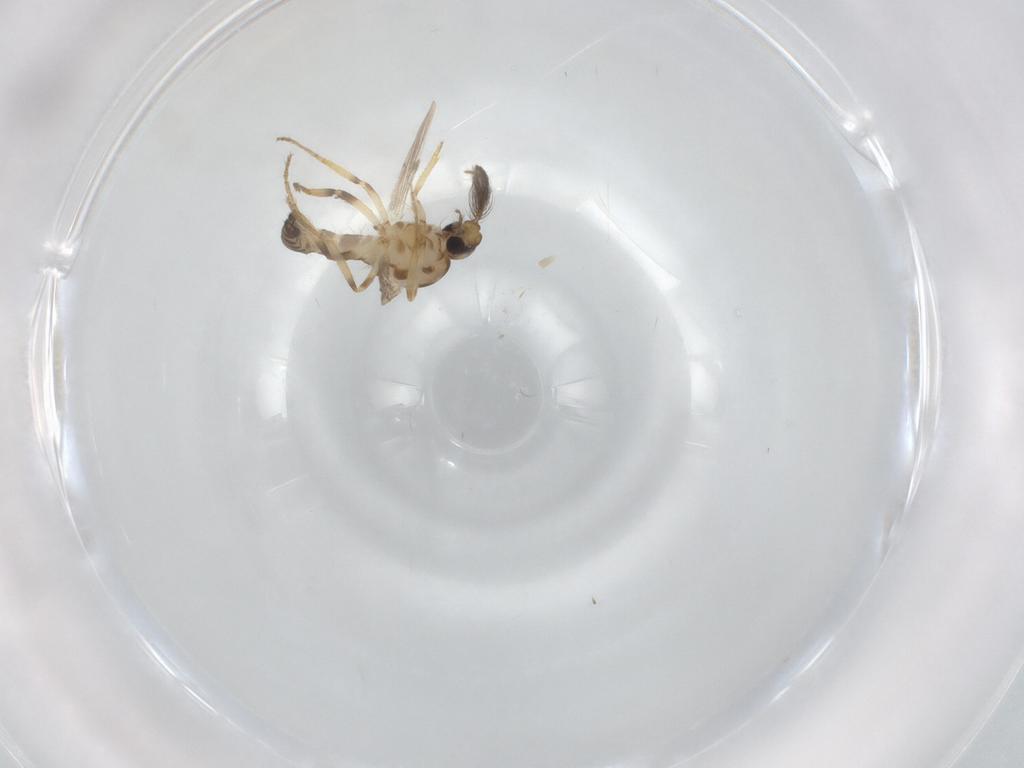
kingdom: Animalia
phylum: Arthropoda
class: Insecta
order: Diptera
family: Ceratopogonidae
